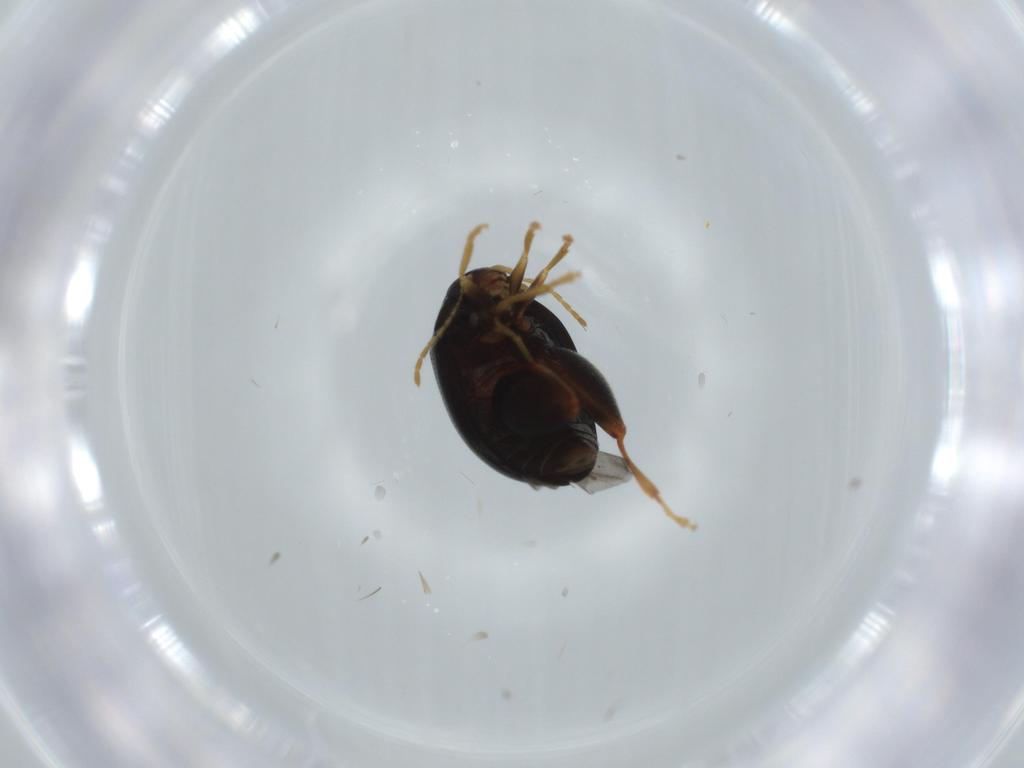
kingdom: Animalia
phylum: Arthropoda
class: Insecta
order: Coleoptera
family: Chrysomelidae
